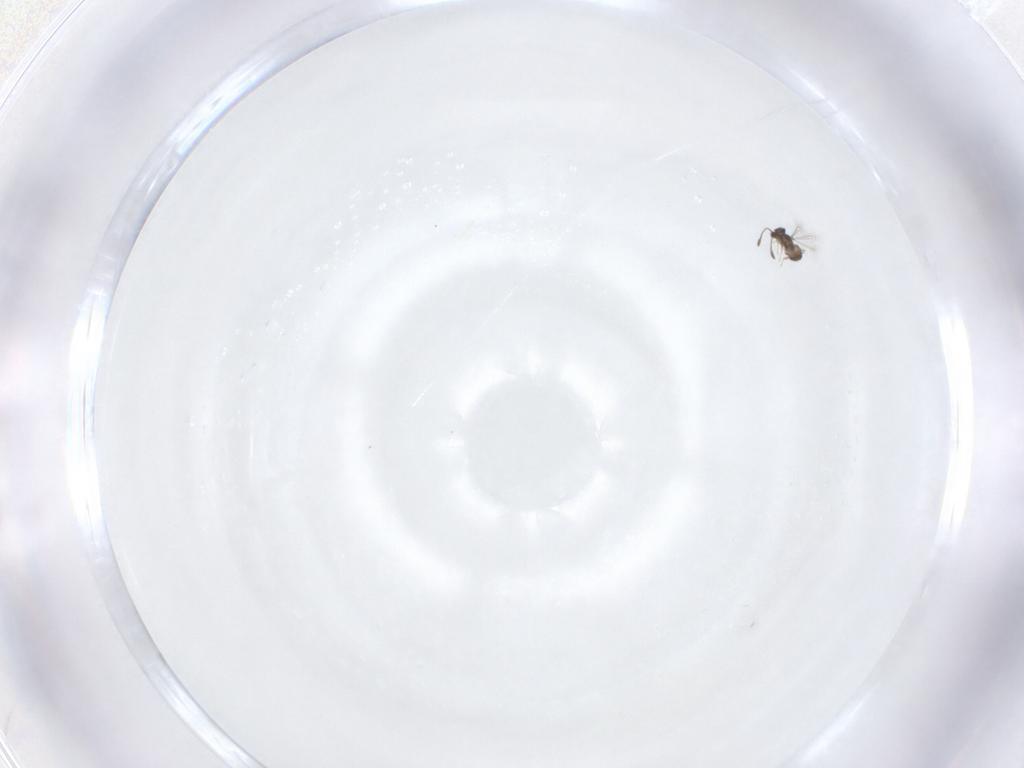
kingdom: Animalia
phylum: Arthropoda
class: Insecta
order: Hymenoptera
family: Mymaridae
